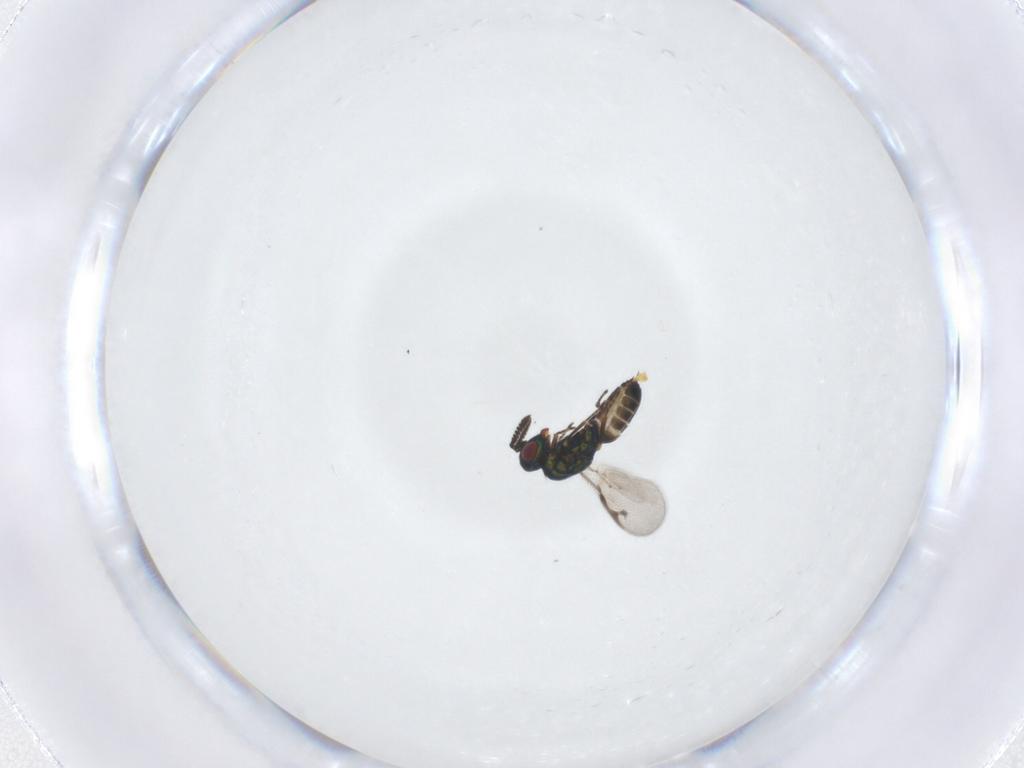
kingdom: Animalia
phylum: Arthropoda
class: Insecta
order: Hymenoptera
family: Pteromalidae
